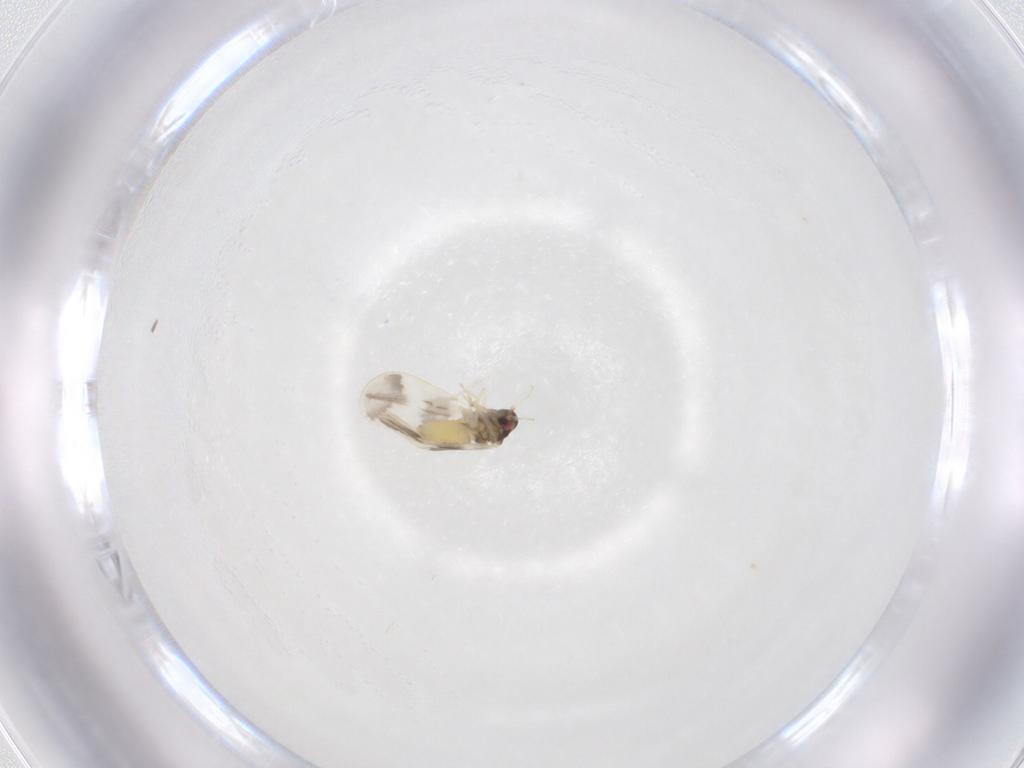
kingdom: Animalia
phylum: Arthropoda
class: Insecta
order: Hemiptera
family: Aleyrodidae
